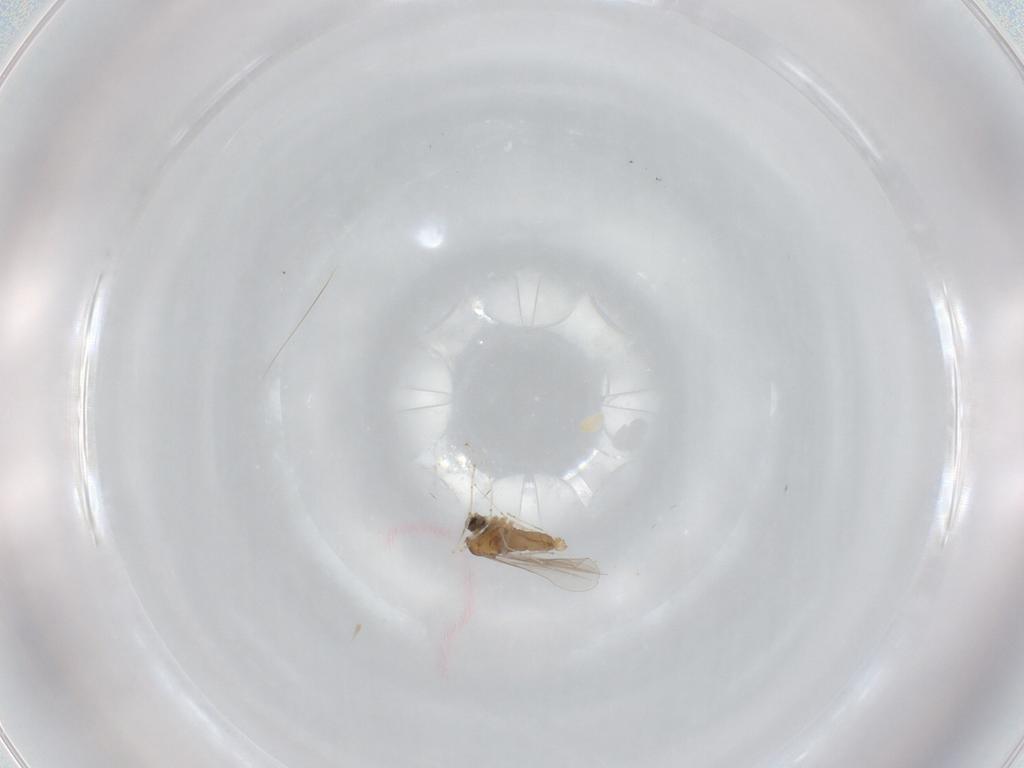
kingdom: Animalia
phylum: Arthropoda
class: Insecta
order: Diptera
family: Cecidomyiidae
